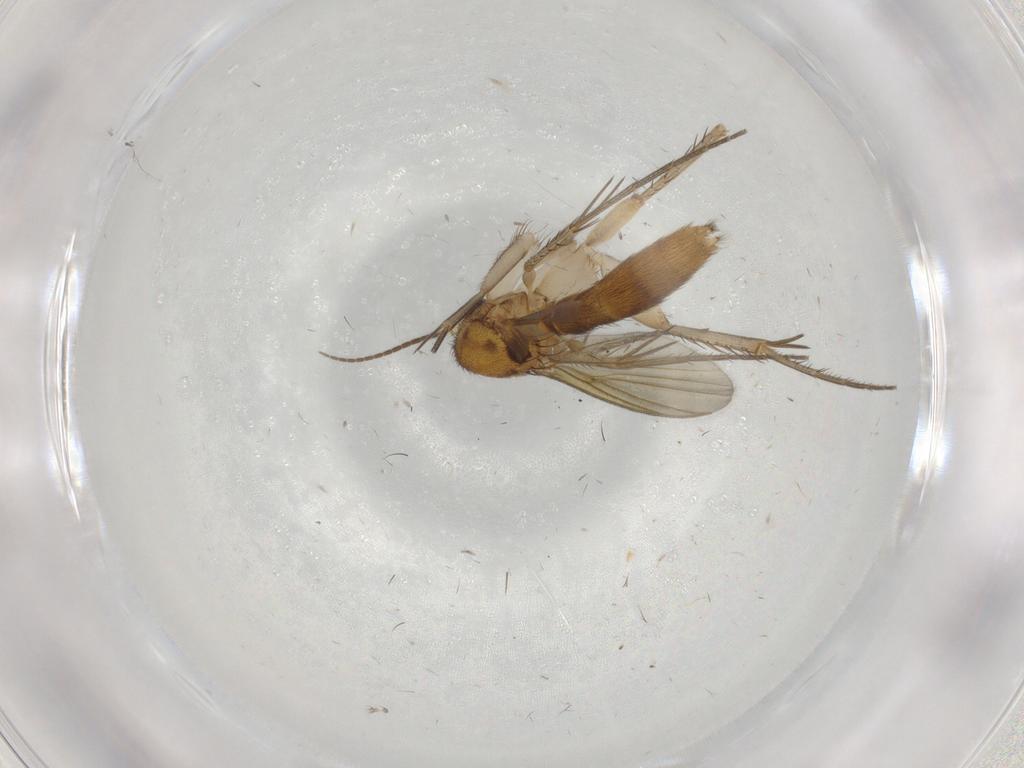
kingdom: Animalia
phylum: Arthropoda
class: Insecta
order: Diptera
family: Mycetophilidae
